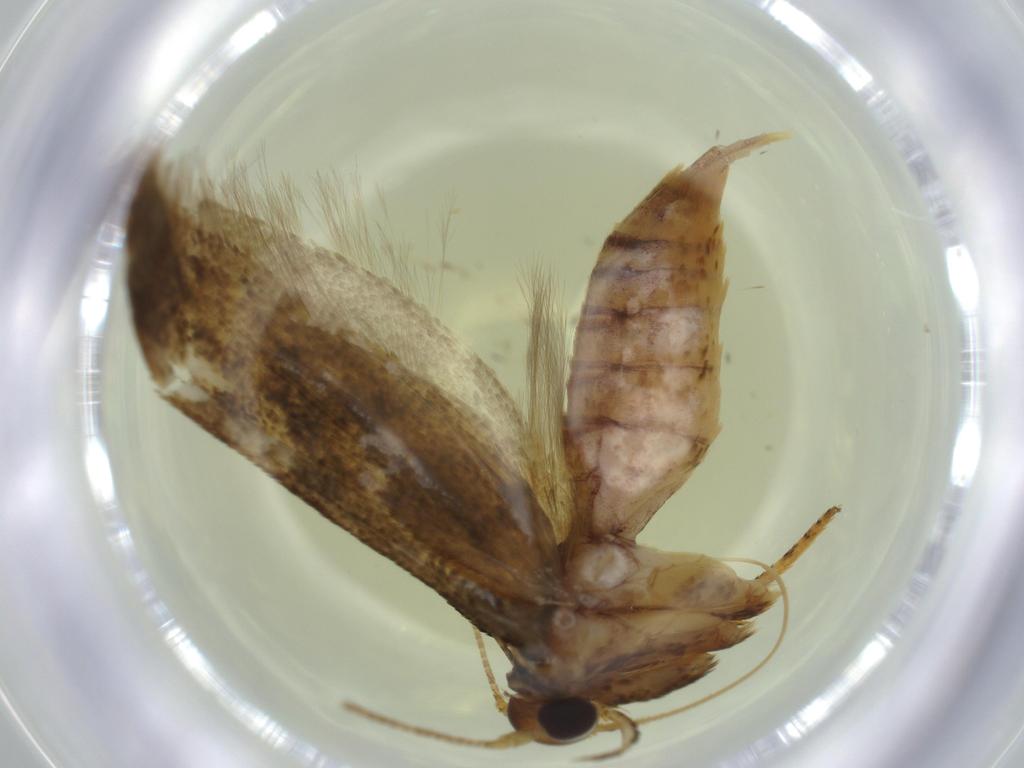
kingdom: Animalia
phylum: Arthropoda
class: Insecta
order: Lepidoptera
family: Blastobasidae
